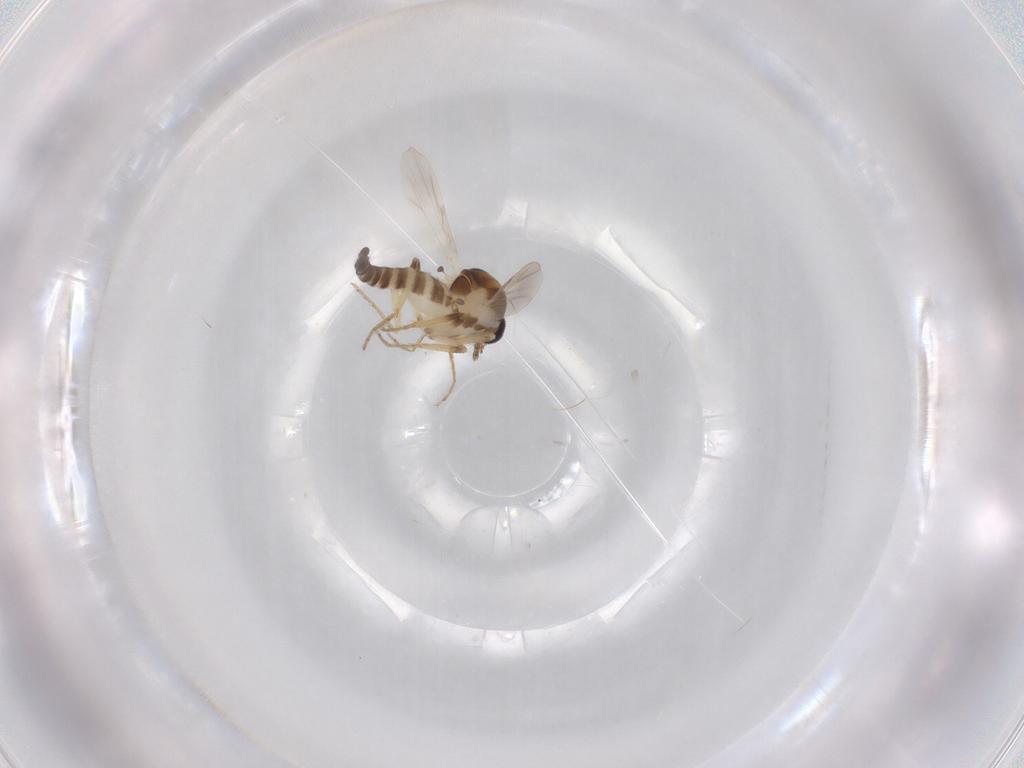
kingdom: Animalia
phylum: Arthropoda
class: Insecta
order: Diptera
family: Ceratopogonidae
